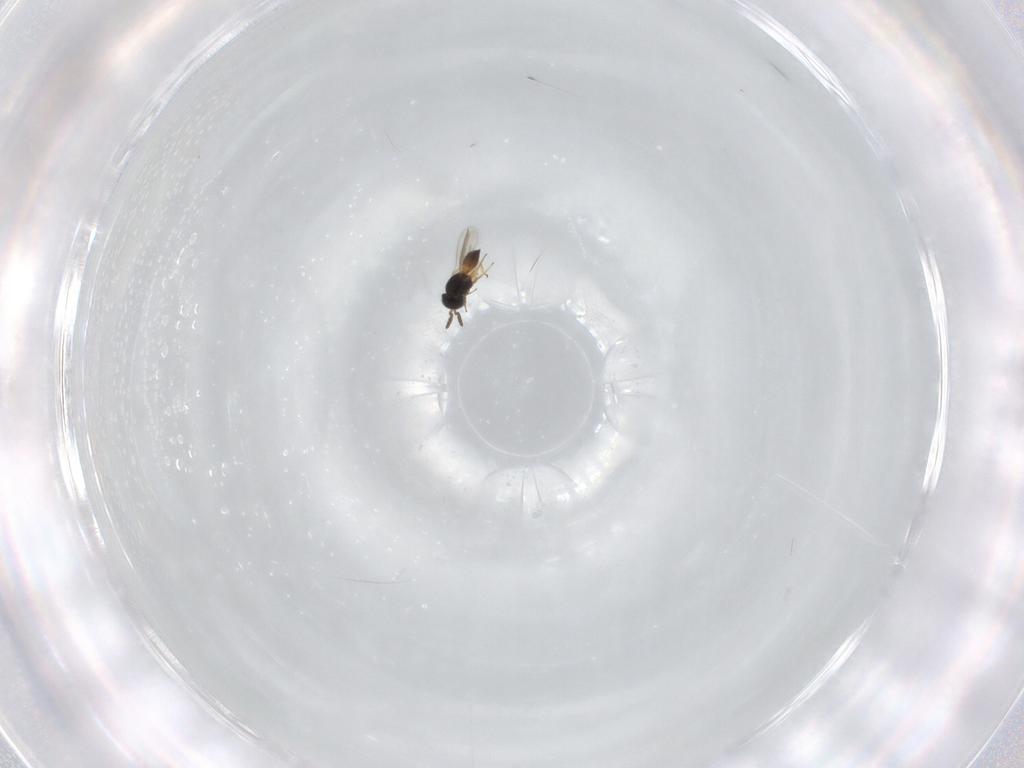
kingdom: Animalia
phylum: Arthropoda
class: Insecta
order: Hymenoptera
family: Scelionidae
